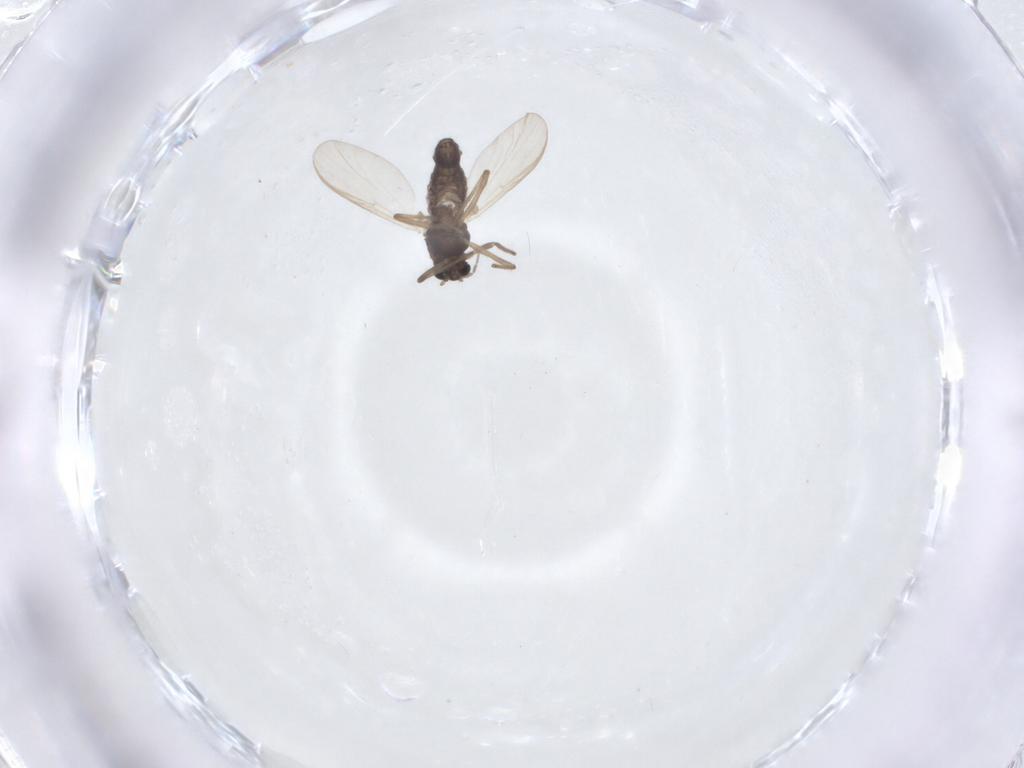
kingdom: Animalia
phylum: Arthropoda
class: Insecta
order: Diptera
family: Chironomidae
